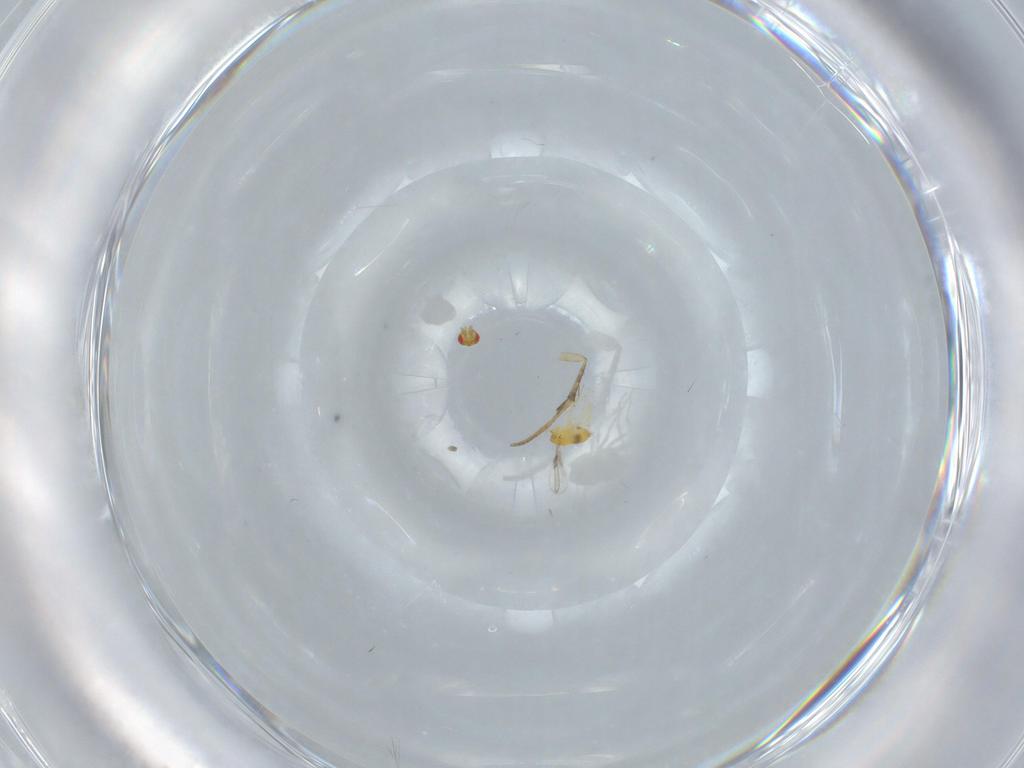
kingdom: Animalia
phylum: Arthropoda
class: Insecta
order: Hymenoptera
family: Trichogrammatidae
